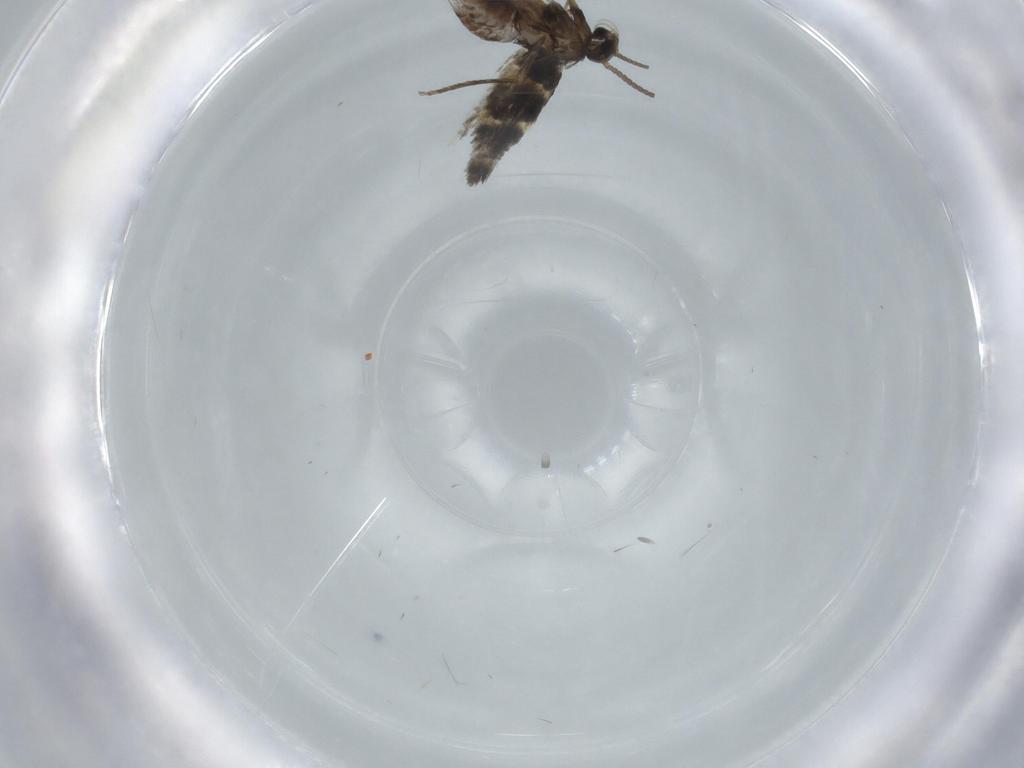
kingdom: Animalia
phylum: Arthropoda
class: Insecta
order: Lepidoptera
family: Heliozelidae
